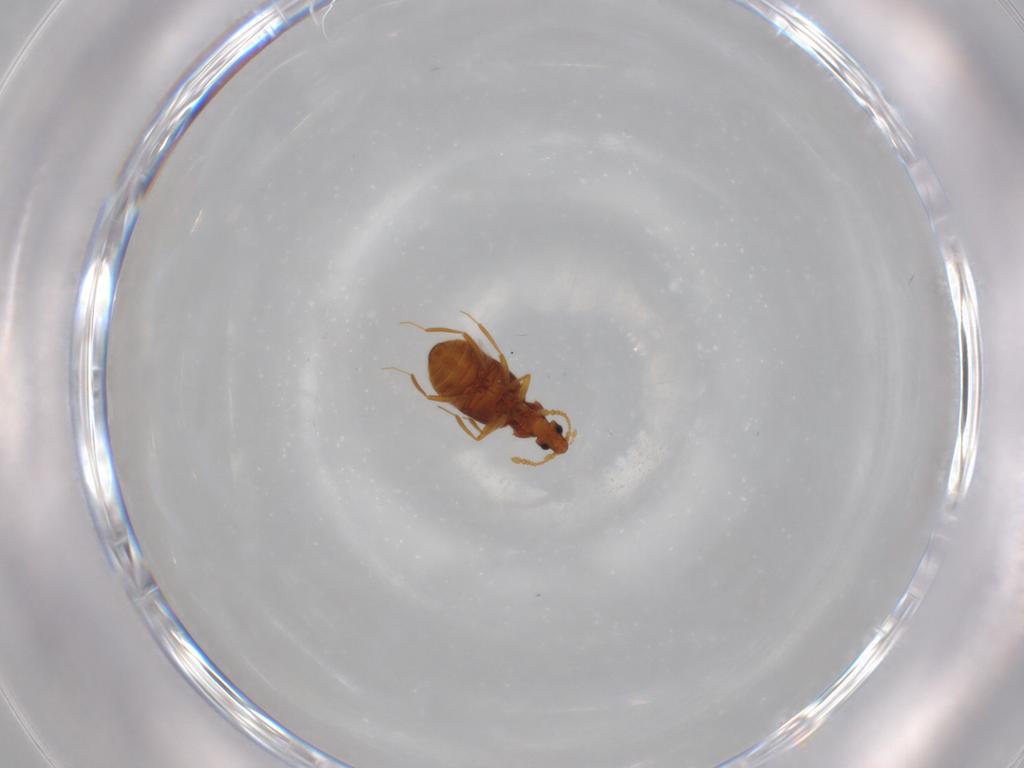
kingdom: Animalia
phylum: Arthropoda
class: Insecta
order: Coleoptera
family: Staphylinidae
